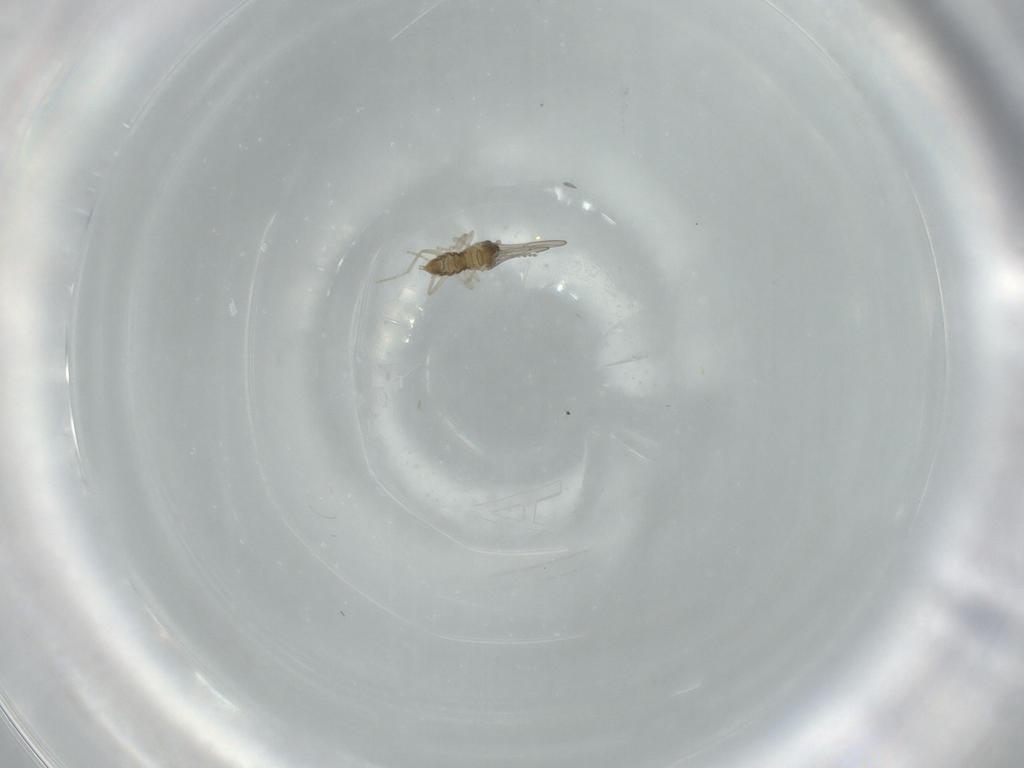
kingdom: Animalia
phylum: Arthropoda
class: Insecta
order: Diptera
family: Cecidomyiidae
